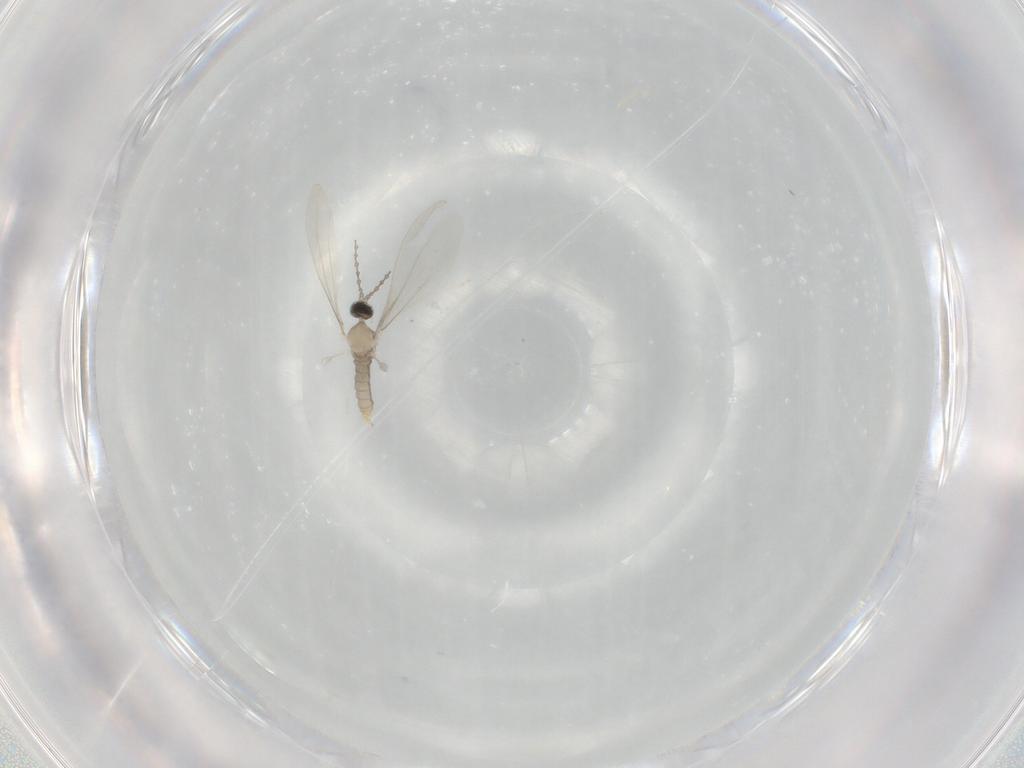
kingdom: Animalia
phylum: Arthropoda
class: Insecta
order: Diptera
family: Cecidomyiidae
